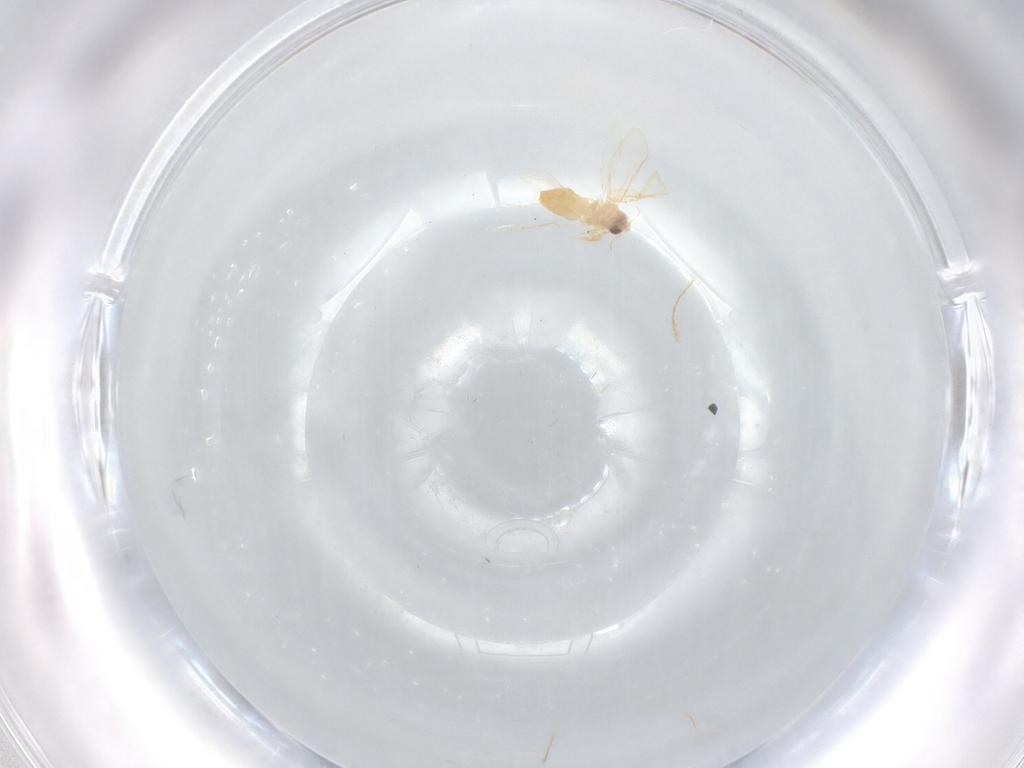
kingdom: Animalia
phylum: Arthropoda
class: Insecta
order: Hemiptera
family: Aleyrodidae
